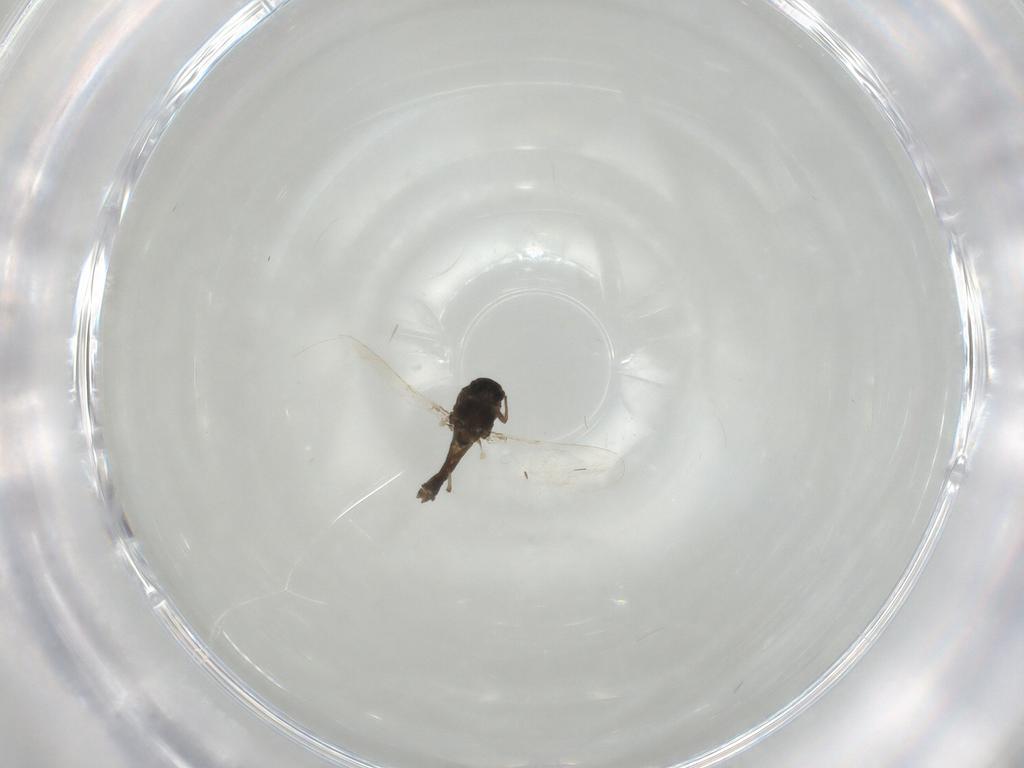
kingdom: Animalia
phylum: Arthropoda
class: Insecta
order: Diptera
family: Chironomidae
